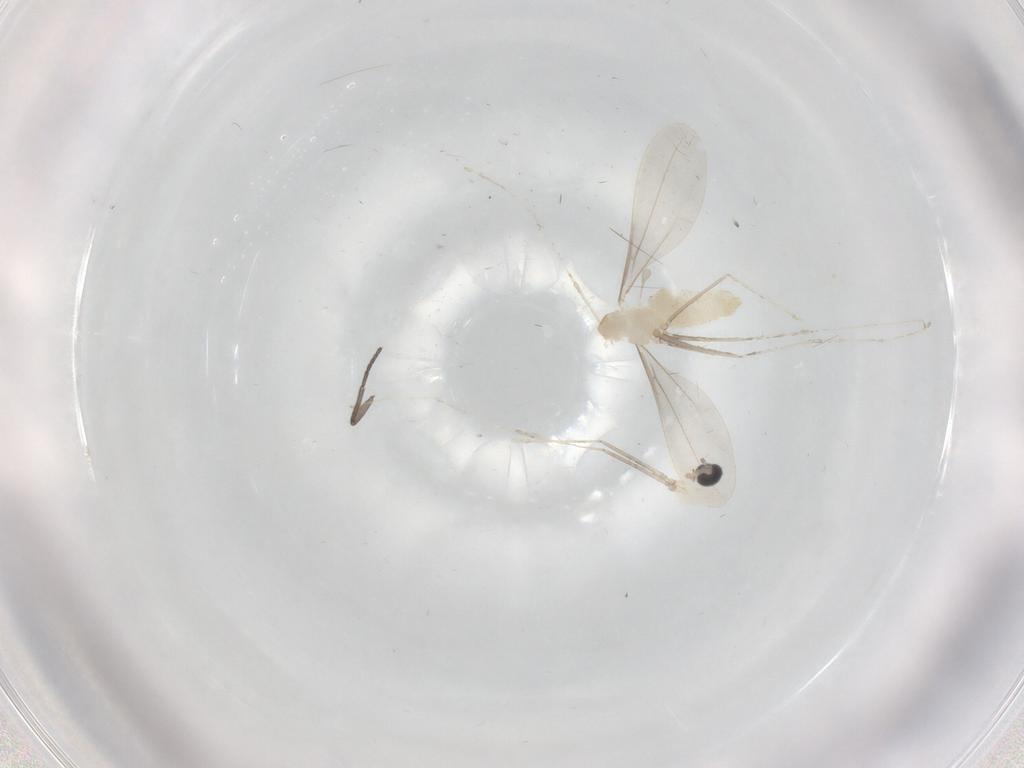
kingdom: Animalia
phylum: Arthropoda
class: Insecta
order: Diptera
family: Cecidomyiidae
